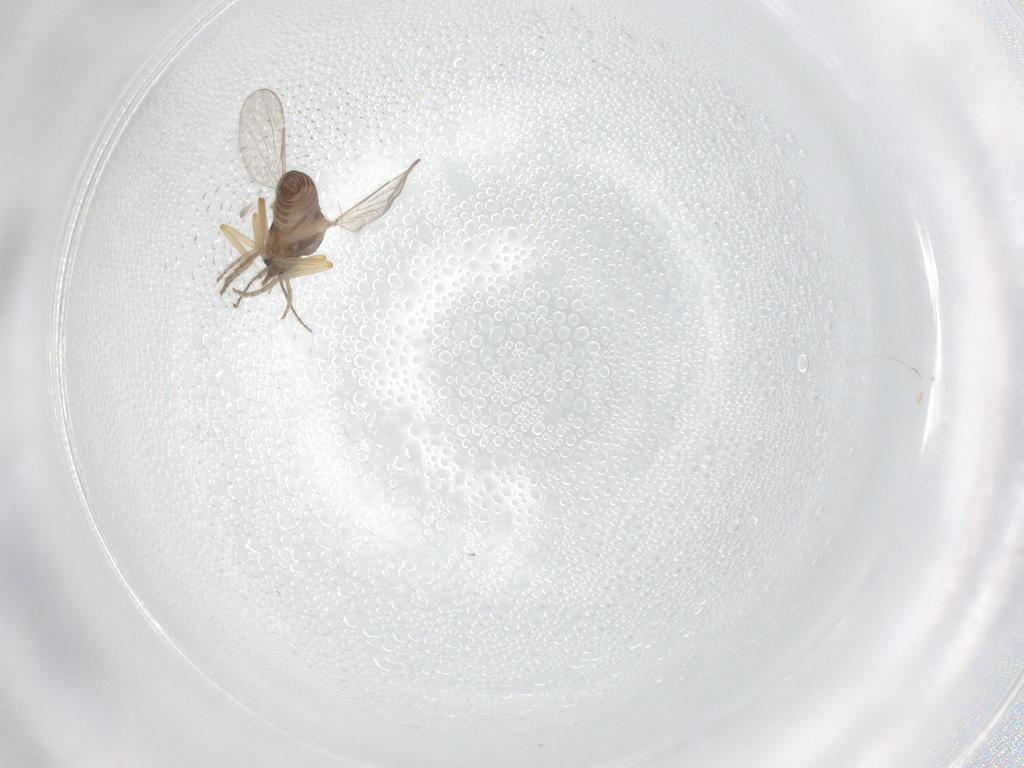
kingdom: Animalia
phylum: Arthropoda
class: Insecta
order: Diptera
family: Ceratopogonidae
